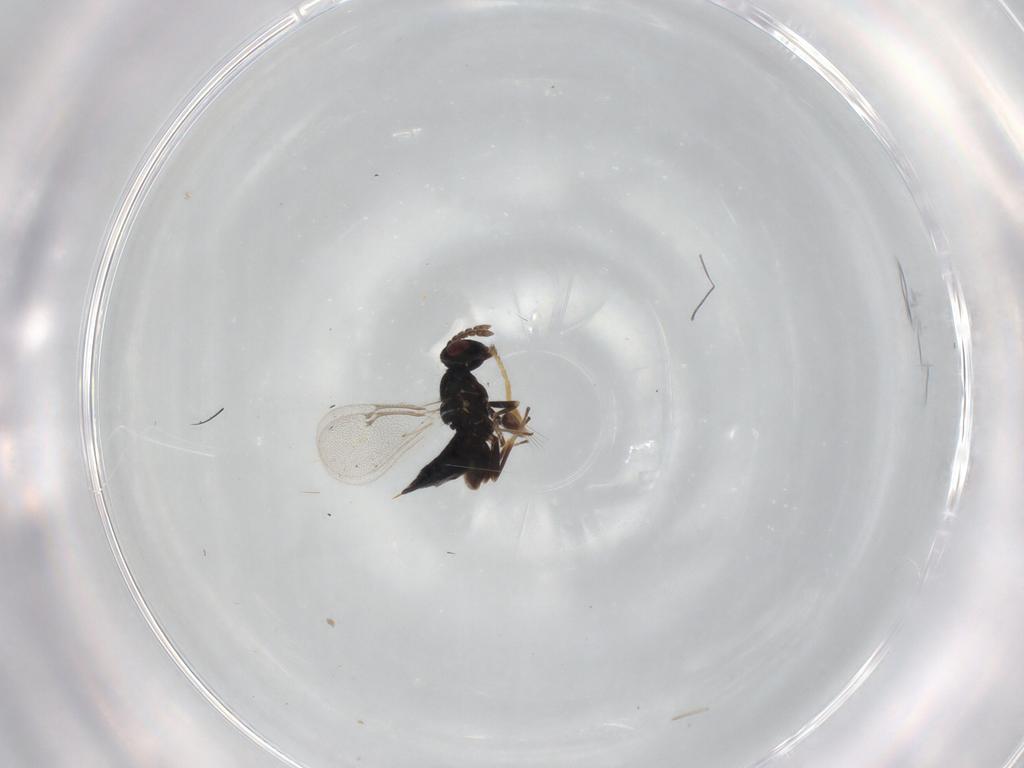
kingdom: Animalia
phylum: Arthropoda
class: Insecta
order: Hymenoptera
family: Eulophidae
